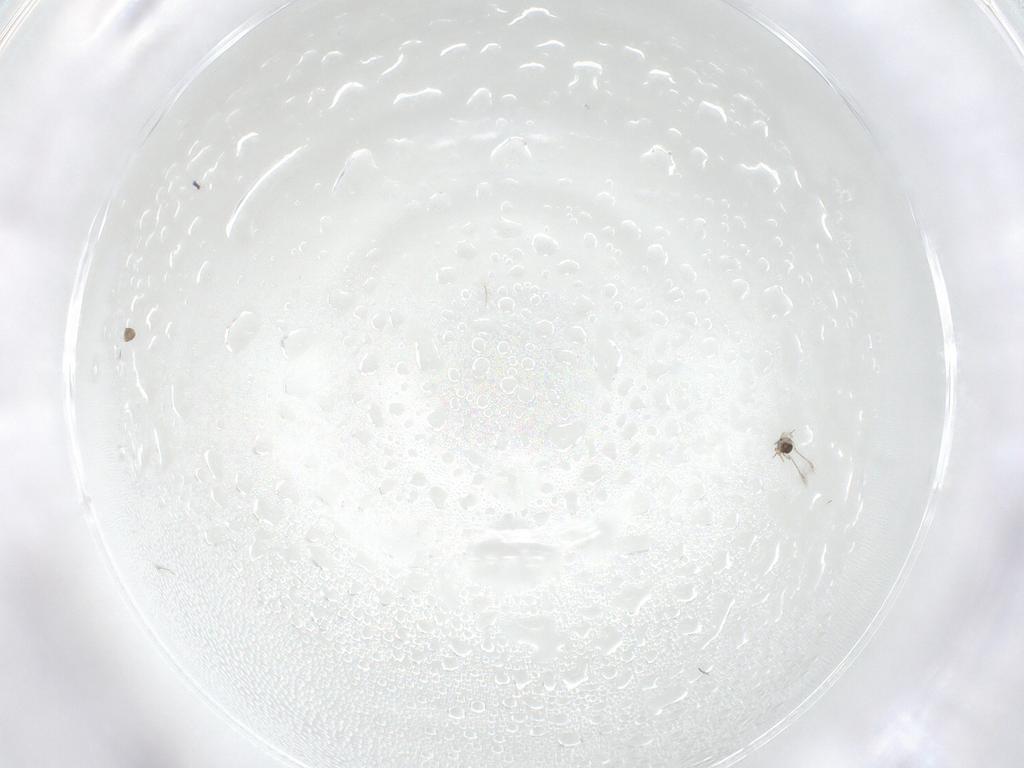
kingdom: Animalia
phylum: Arthropoda
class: Insecta
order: Hymenoptera
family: Mymaridae
